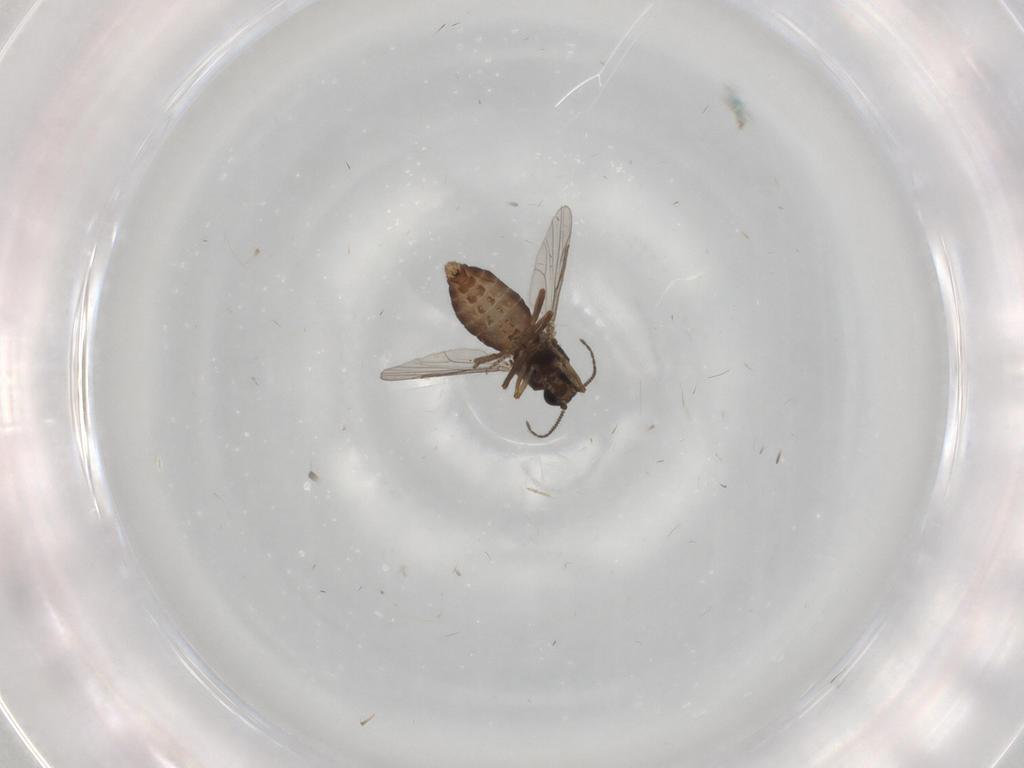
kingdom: Animalia
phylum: Arthropoda
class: Insecta
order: Diptera
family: Ceratopogonidae
